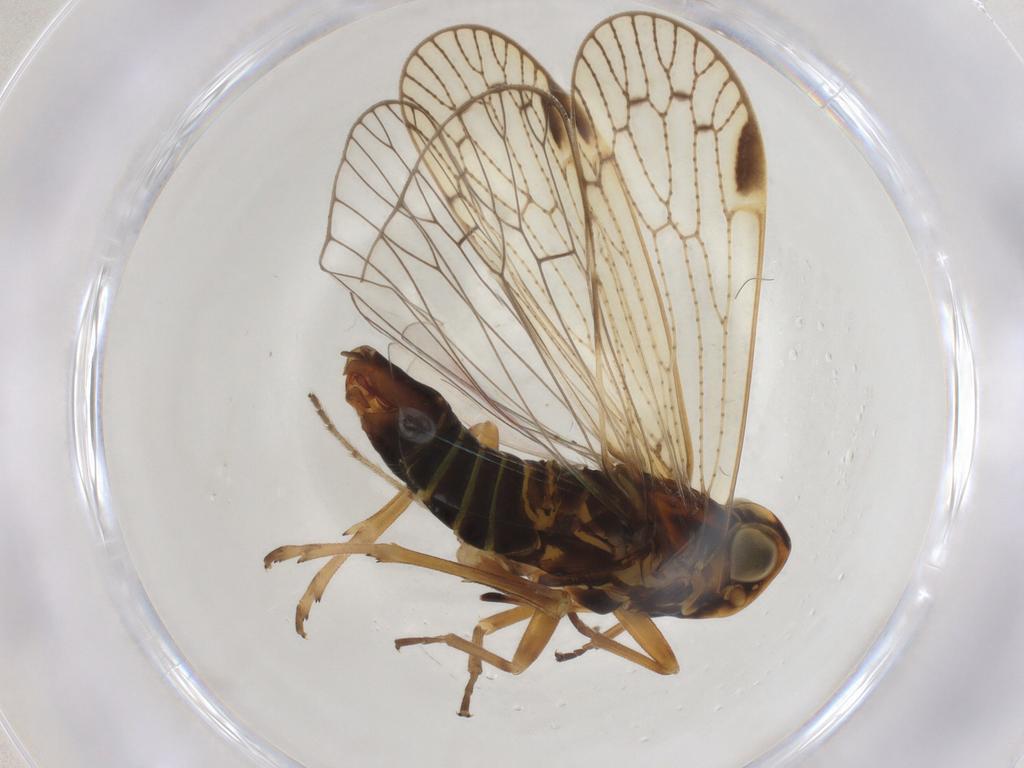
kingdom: Animalia
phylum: Arthropoda
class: Insecta
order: Hemiptera
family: Cixiidae
